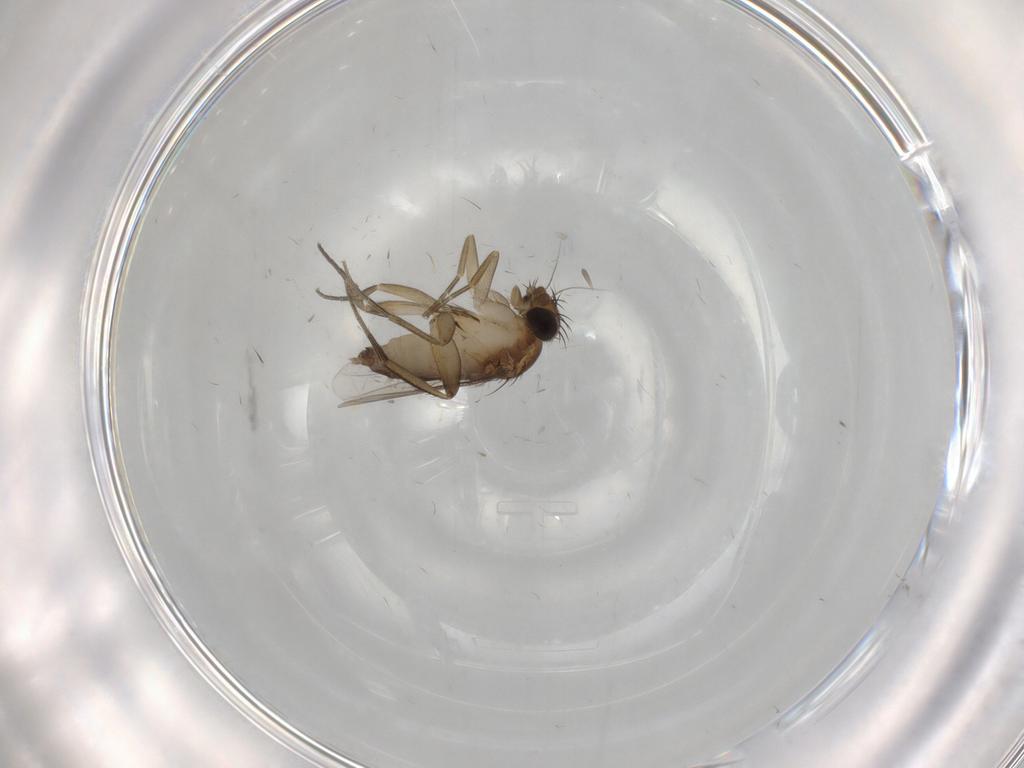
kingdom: Animalia
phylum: Arthropoda
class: Insecta
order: Diptera
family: Phoridae
